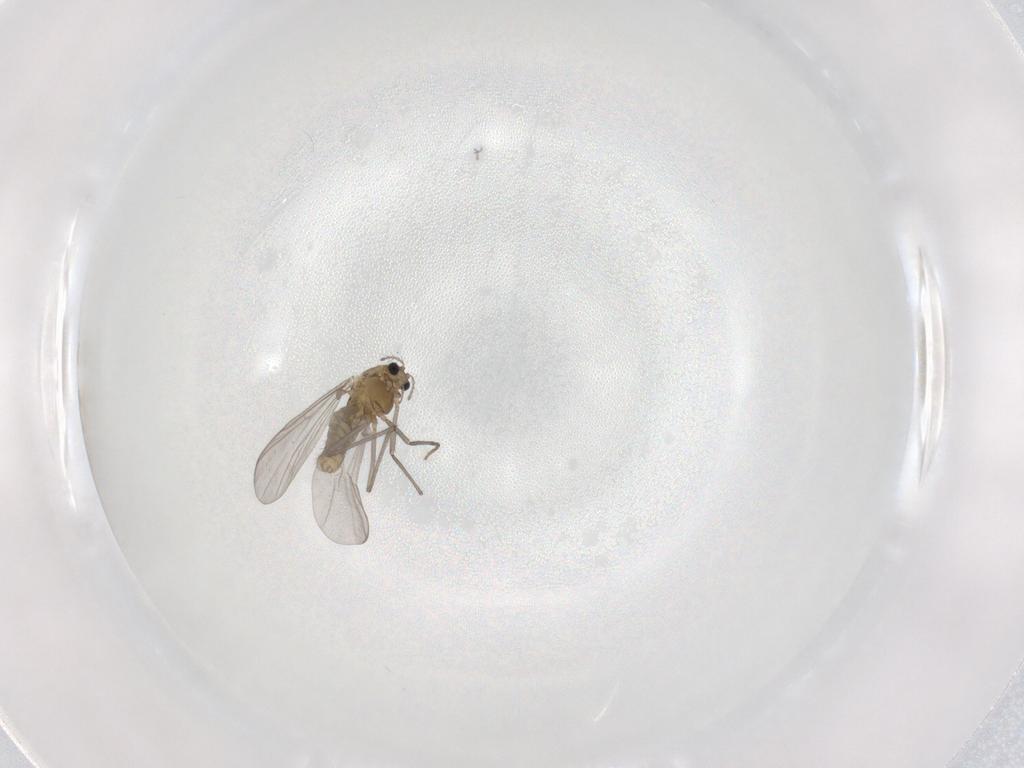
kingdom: Animalia
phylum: Arthropoda
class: Insecta
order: Diptera
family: Chironomidae
